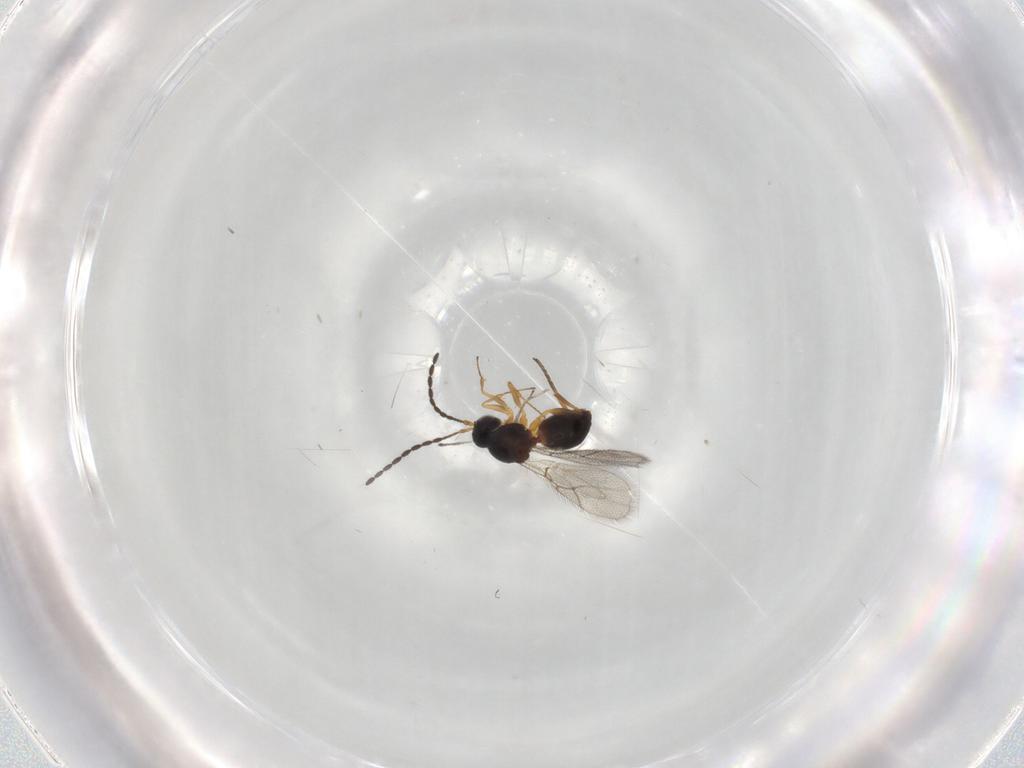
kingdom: Animalia
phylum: Arthropoda
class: Insecta
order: Hymenoptera
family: Figitidae
